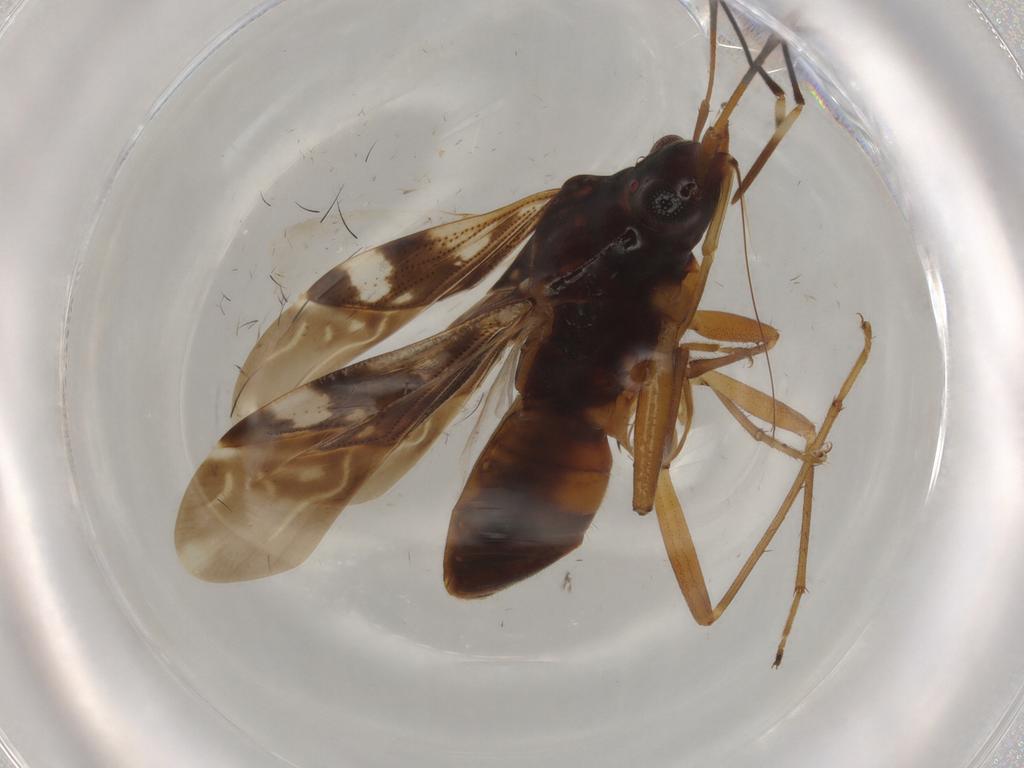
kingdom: Animalia
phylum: Arthropoda
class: Insecta
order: Hemiptera
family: Rhyparochromidae
